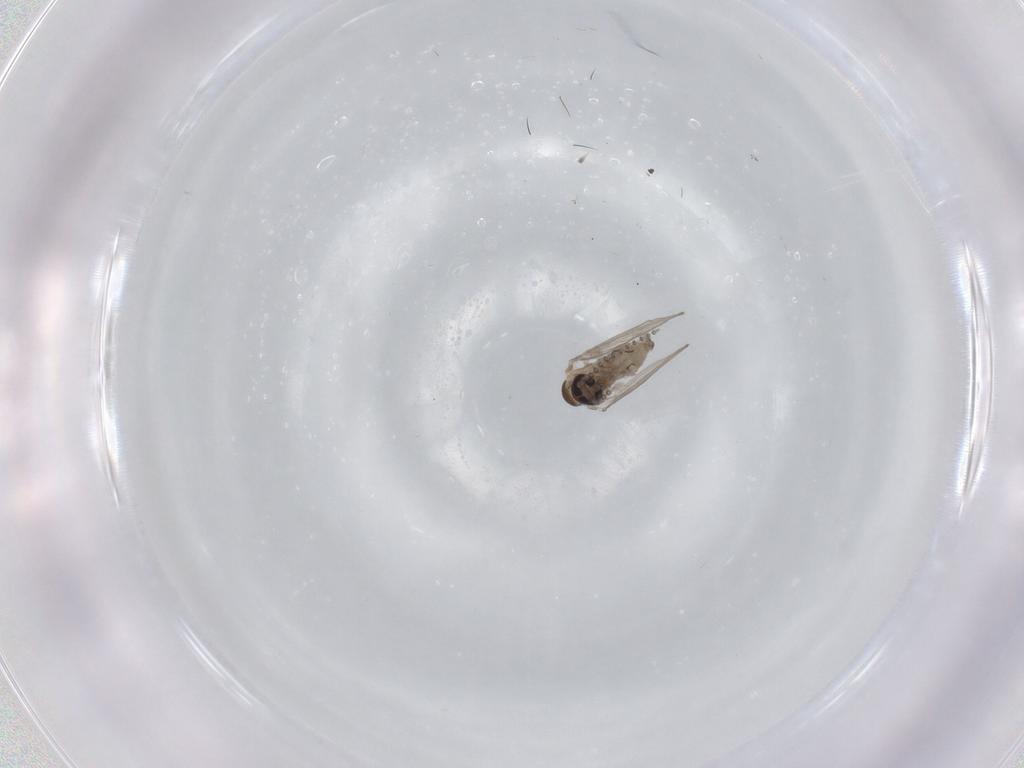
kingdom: Animalia
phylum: Arthropoda
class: Insecta
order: Diptera
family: Psychodidae
